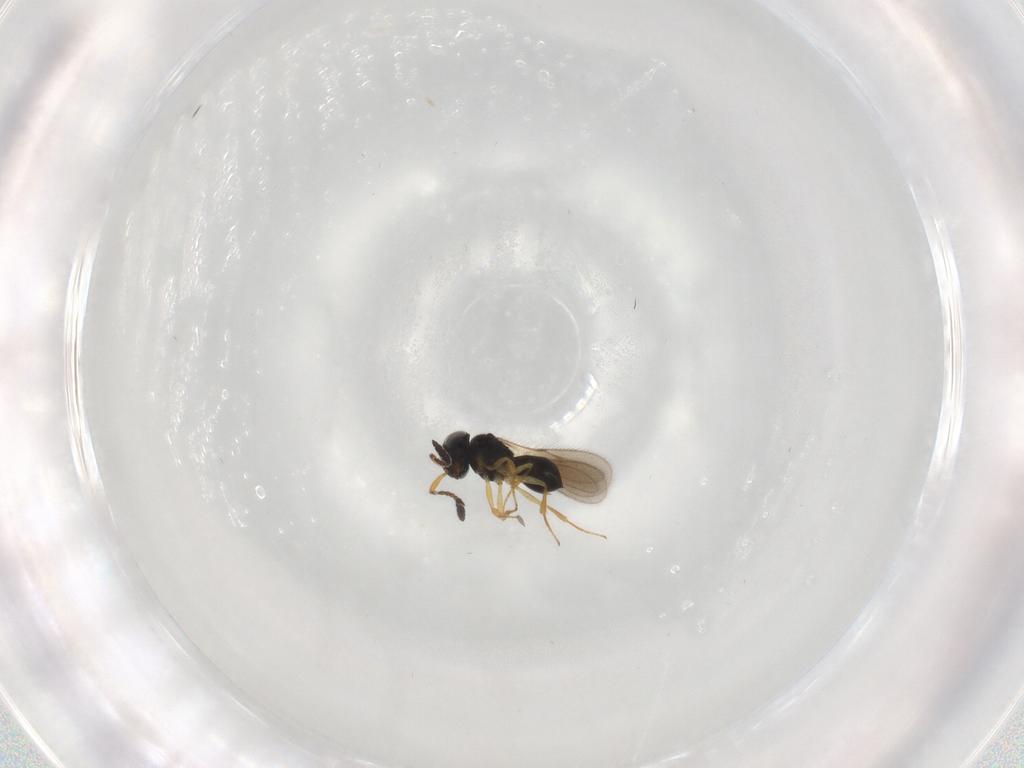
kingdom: Animalia
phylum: Arthropoda
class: Insecta
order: Hymenoptera
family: Scelionidae
